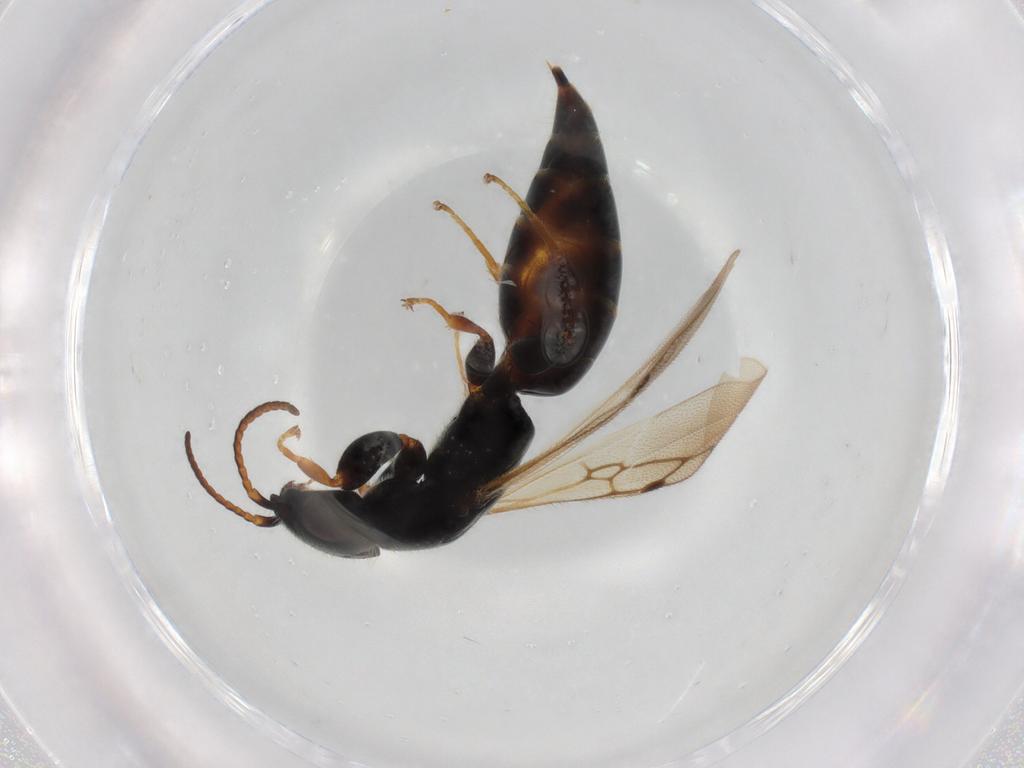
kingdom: Animalia
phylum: Arthropoda
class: Insecta
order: Hymenoptera
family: Bethylidae
